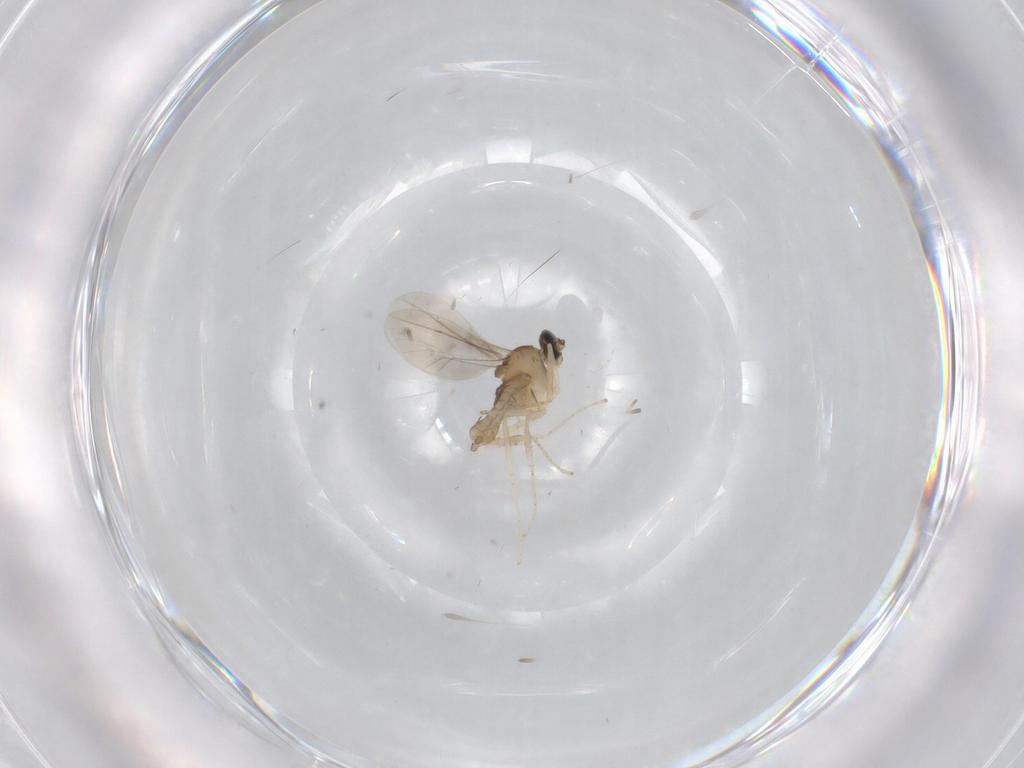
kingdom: Animalia
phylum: Arthropoda
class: Insecta
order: Diptera
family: Cecidomyiidae
